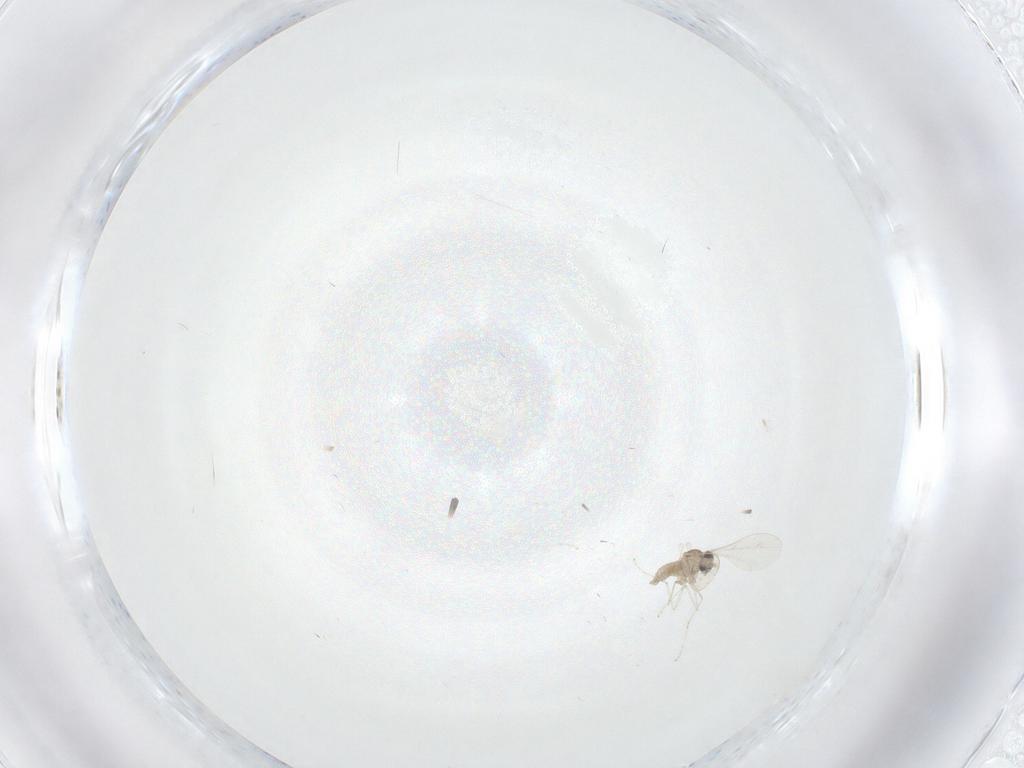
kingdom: Animalia
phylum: Arthropoda
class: Insecta
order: Diptera
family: Cecidomyiidae
